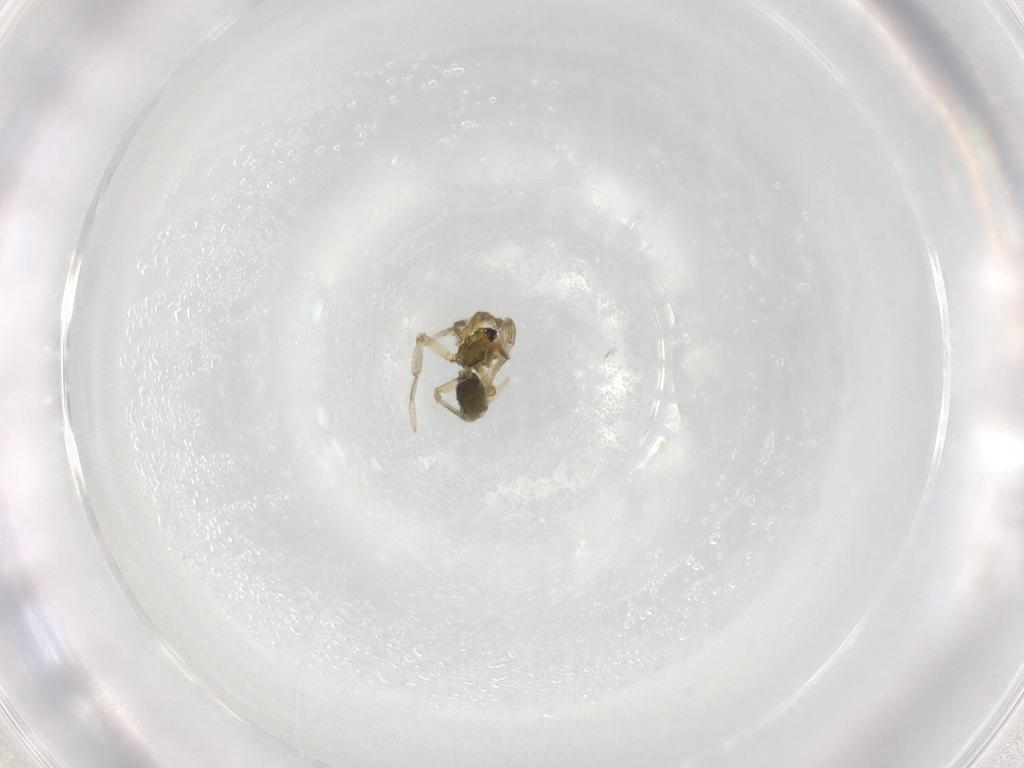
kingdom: Animalia
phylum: Arthropoda
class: Arachnida
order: Araneae
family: Linyphiidae
